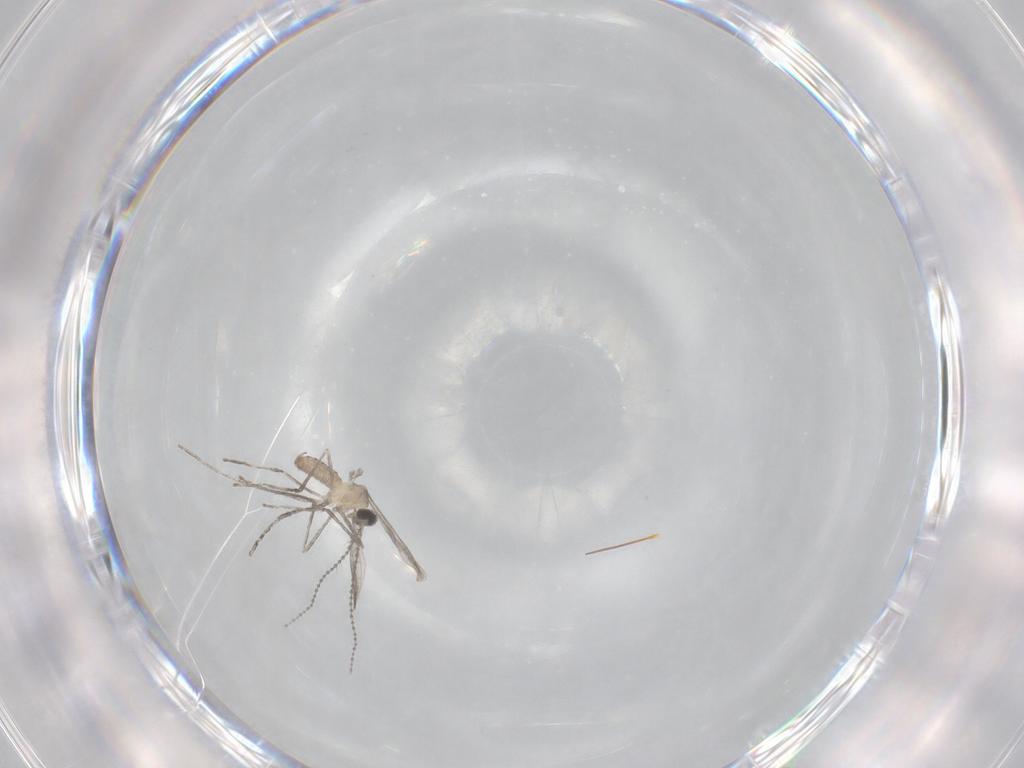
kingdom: Animalia
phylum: Arthropoda
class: Insecta
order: Diptera
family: Cecidomyiidae
